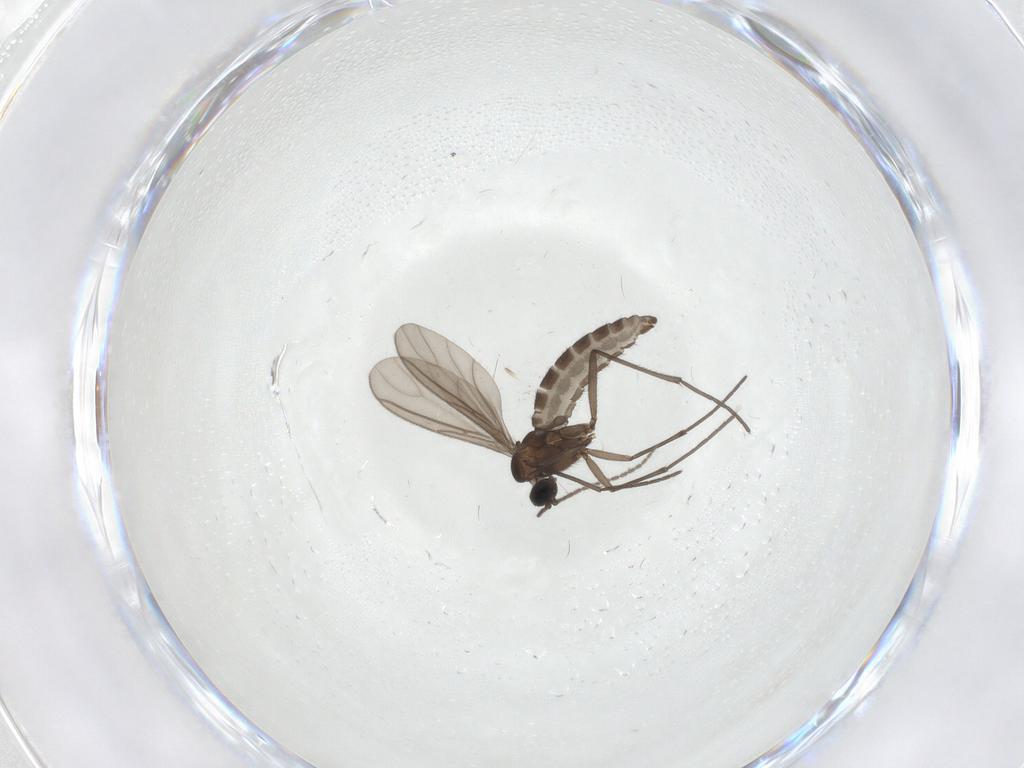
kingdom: Animalia
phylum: Arthropoda
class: Insecta
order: Diptera
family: Sciaridae
